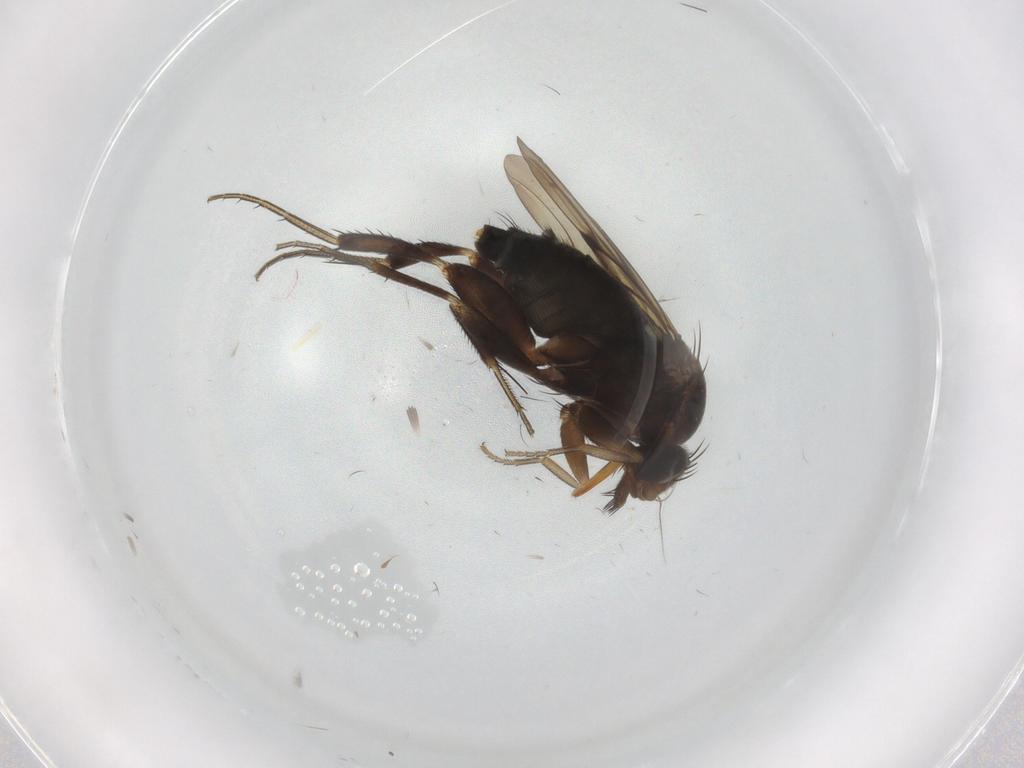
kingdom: Animalia
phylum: Arthropoda
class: Insecta
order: Diptera
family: Phoridae
